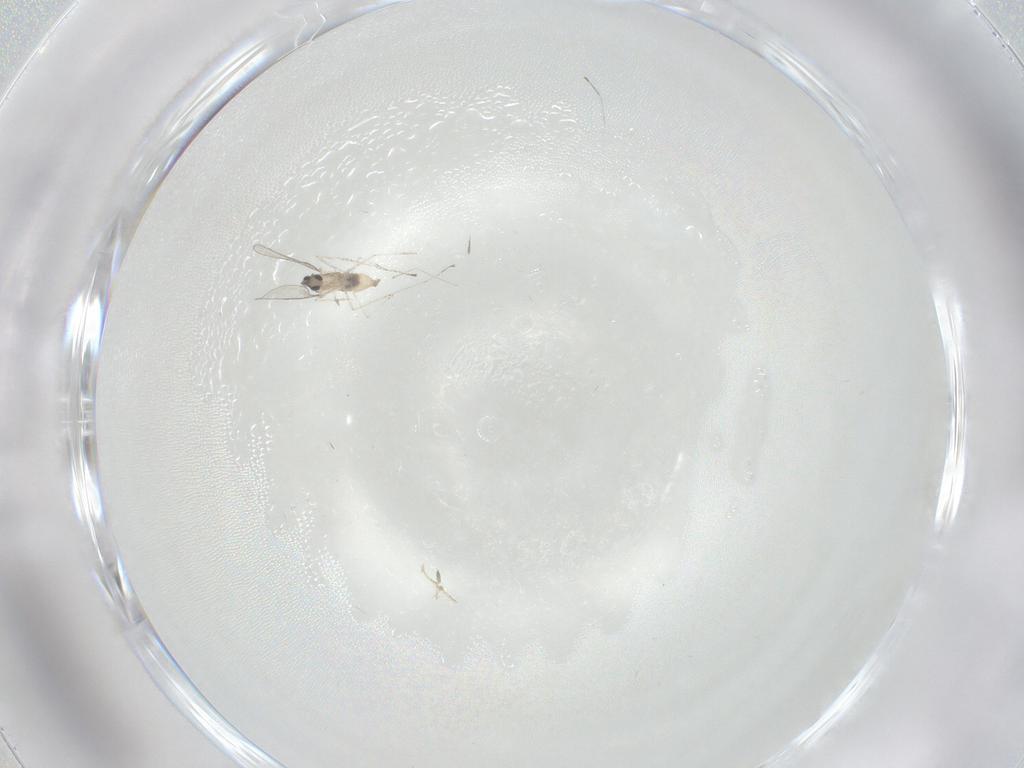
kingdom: Animalia
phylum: Arthropoda
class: Insecta
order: Diptera
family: Cecidomyiidae
